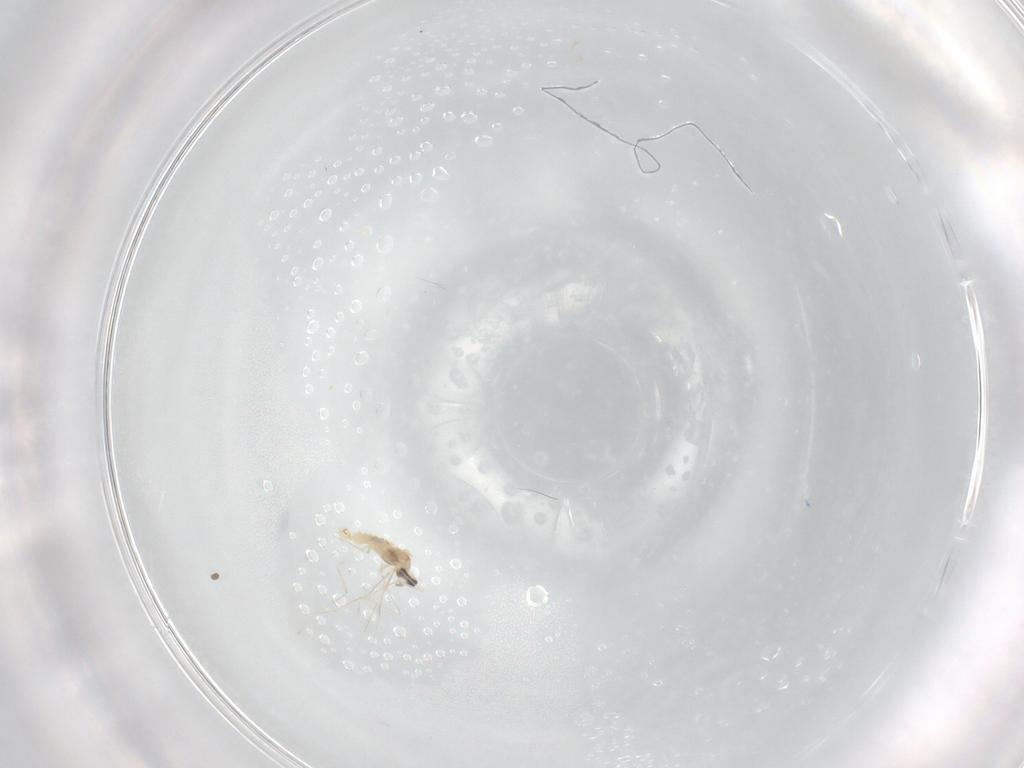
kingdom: Animalia
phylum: Arthropoda
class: Insecta
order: Diptera
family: Cecidomyiidae
